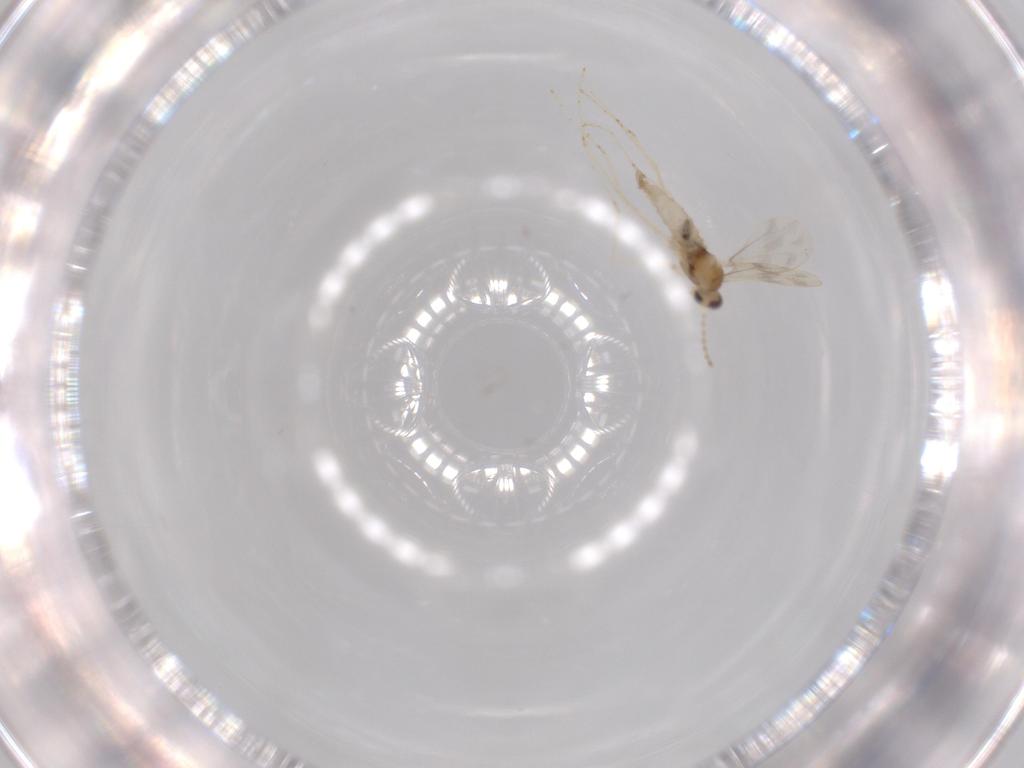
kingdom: Animalia
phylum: Arthropoda
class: Insecta
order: Diptera
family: Cecidomyiidae
